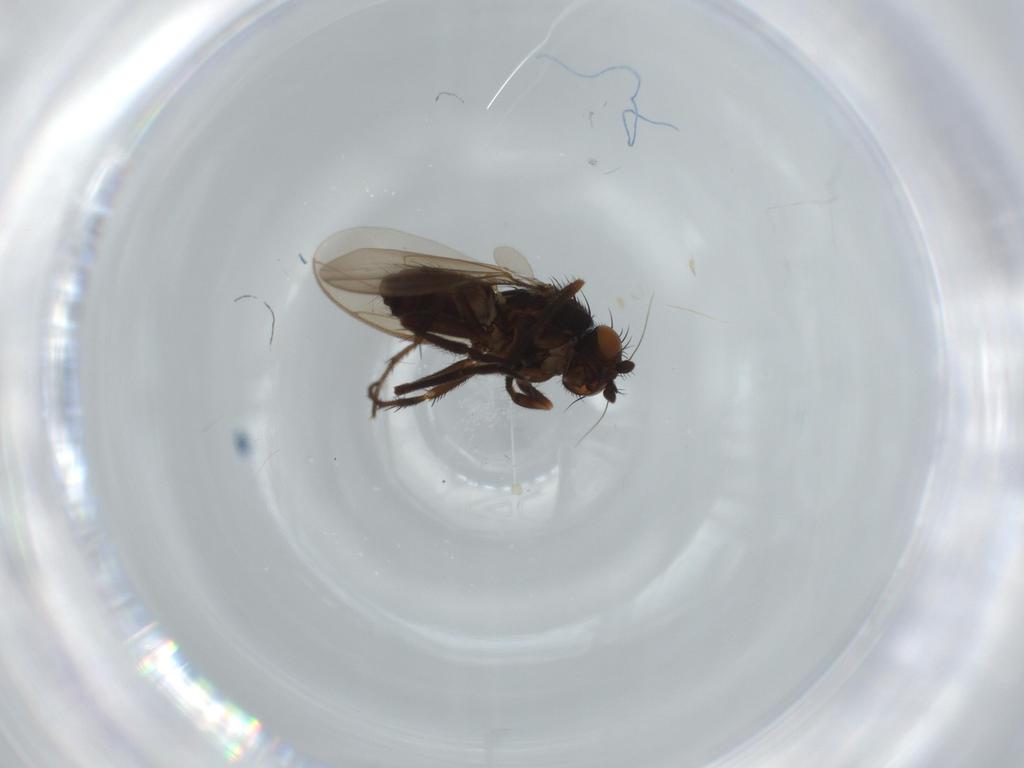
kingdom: Animalia
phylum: Arthropoda
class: Insecta
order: Diptera
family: Sphaeroceridae
